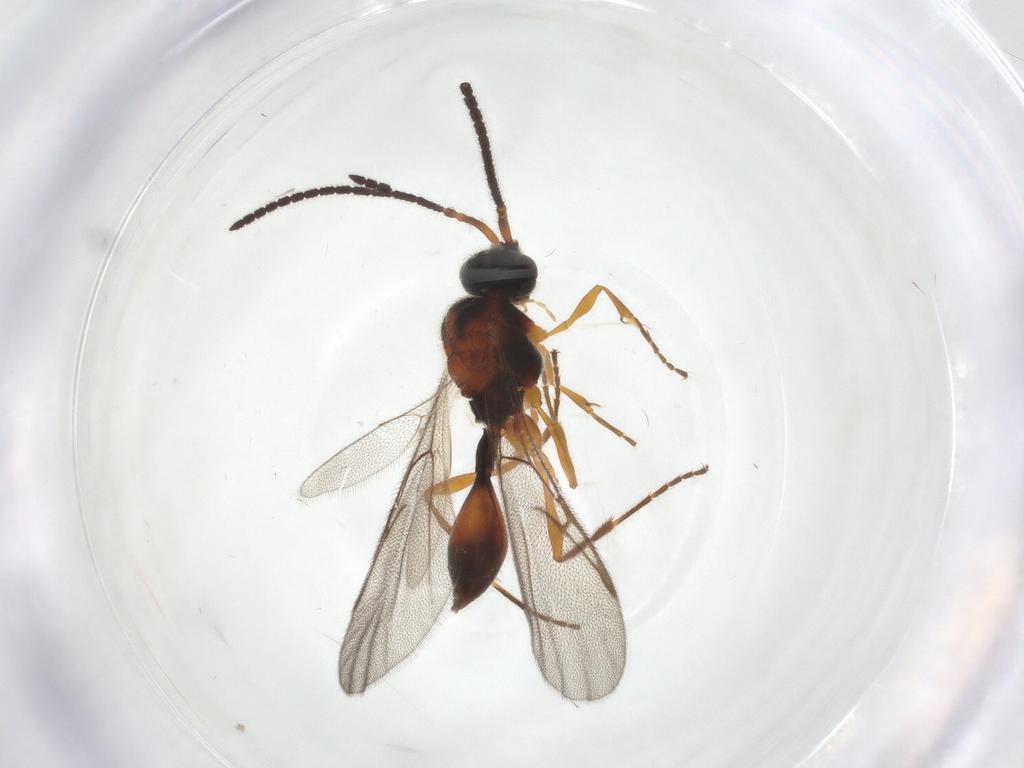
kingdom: Animalia
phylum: Arthropoda
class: Insecta
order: Hymenoptera
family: Diapriidae
